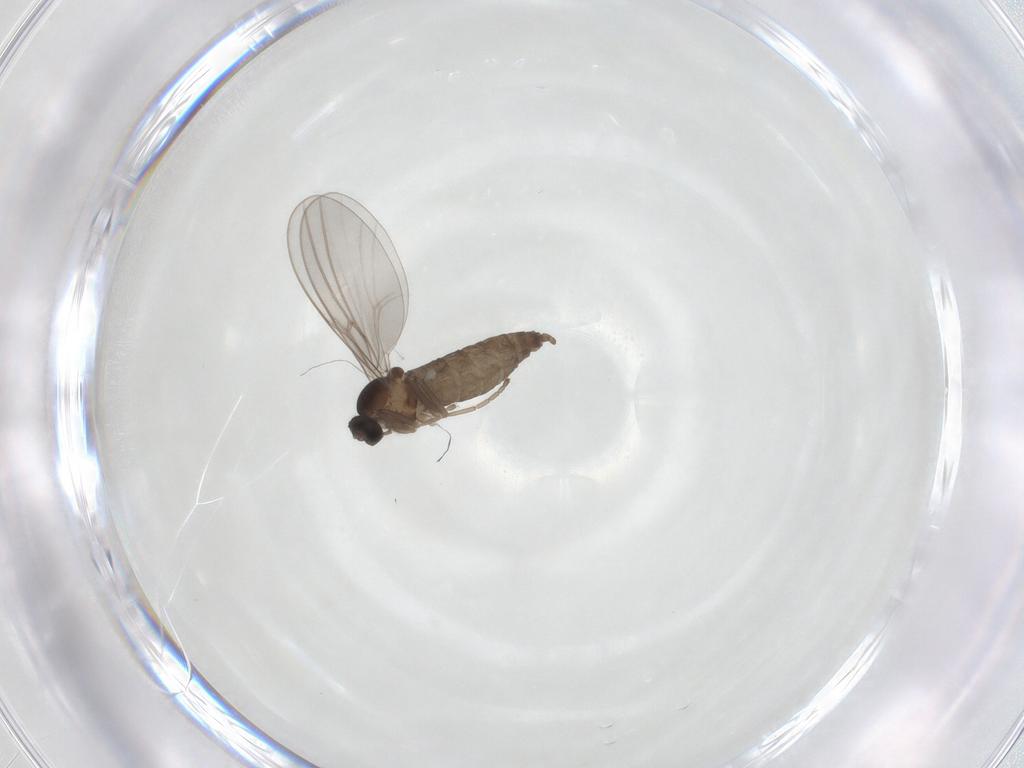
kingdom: Animalia
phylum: Arthropoda
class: Insecta
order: Diptera
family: Cecidomyiidae
